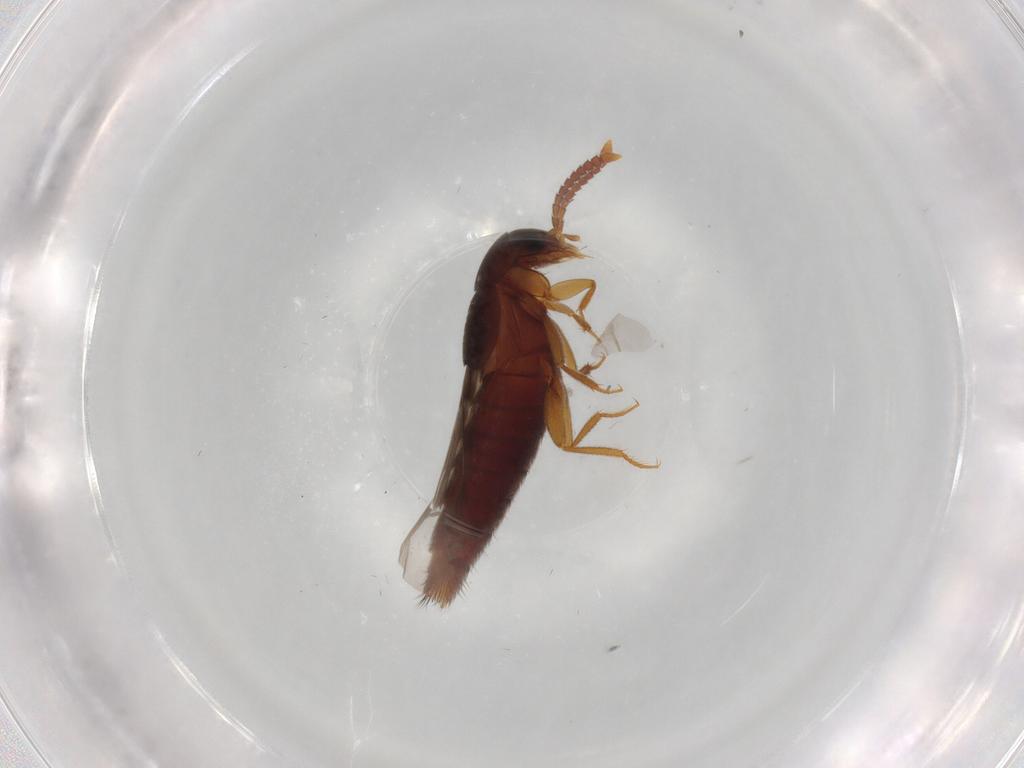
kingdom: Animalia
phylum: Arthropoda
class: Insecta
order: Coleoptera
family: Staphylinidae
